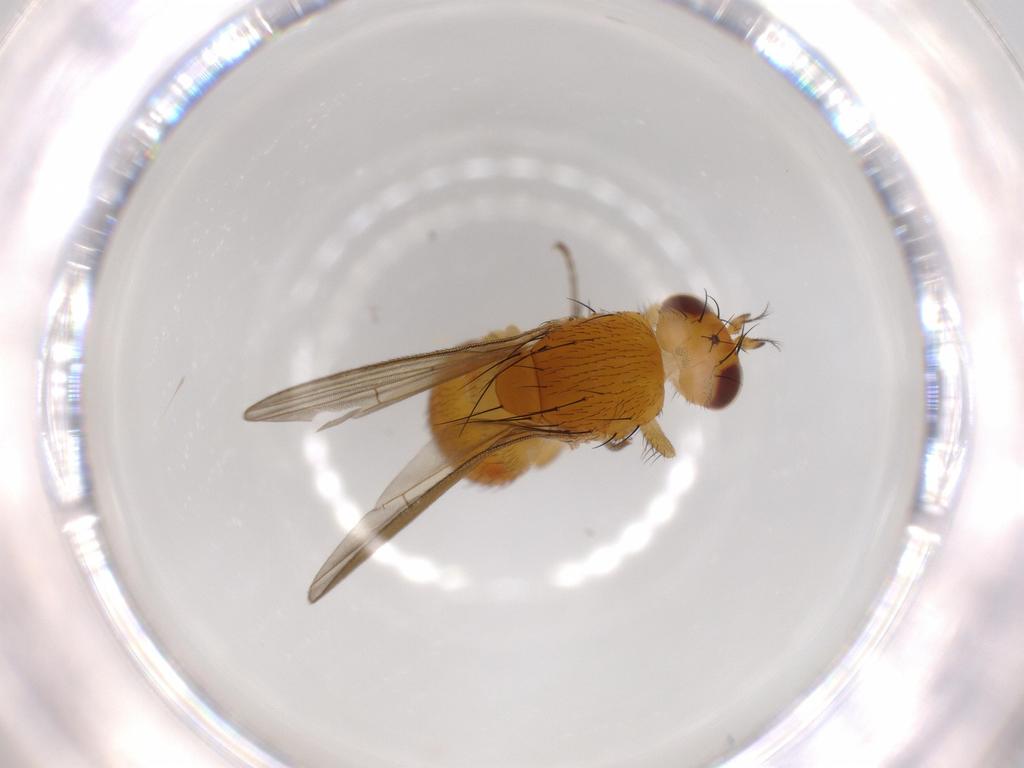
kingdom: Animalia
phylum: Arthropoda
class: Insecta
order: Diptera
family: Lauxaniidae
